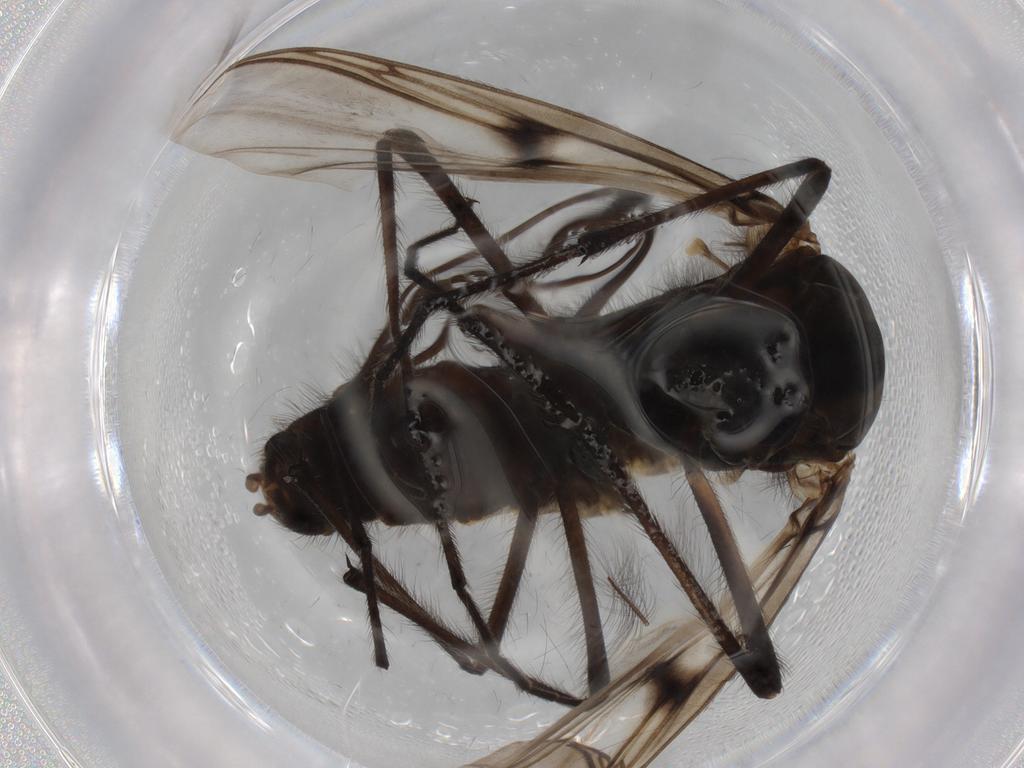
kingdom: Animalia
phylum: Arthropoda
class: Insecta
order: Diptera
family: Chironomidae
